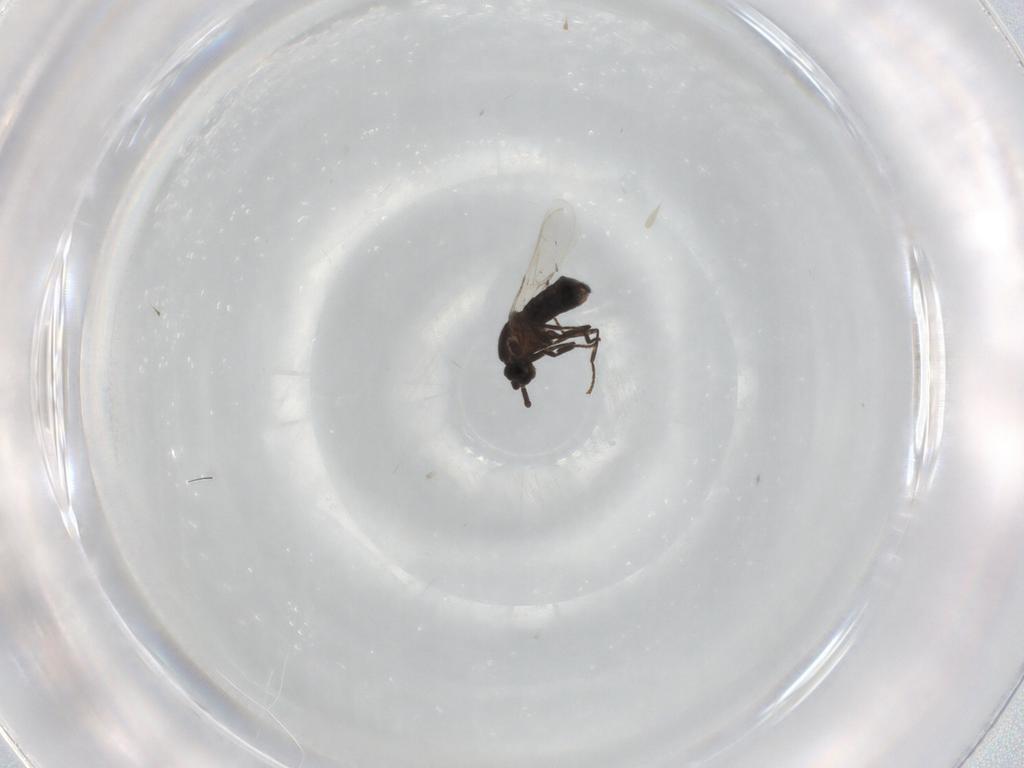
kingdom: Animalia
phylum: Arthropoda
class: Insecta
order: Diptera
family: Scatopsidae
